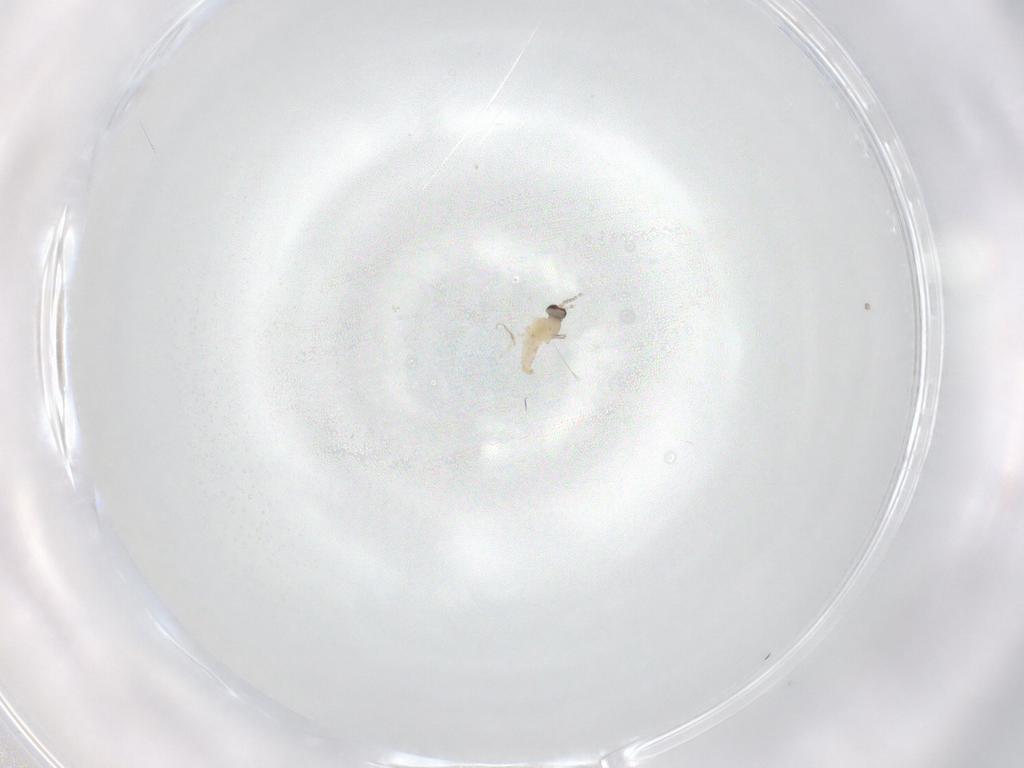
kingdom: Animalia
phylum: Arthropoda
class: Insecta
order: Diptera
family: Cecidomyiidae
